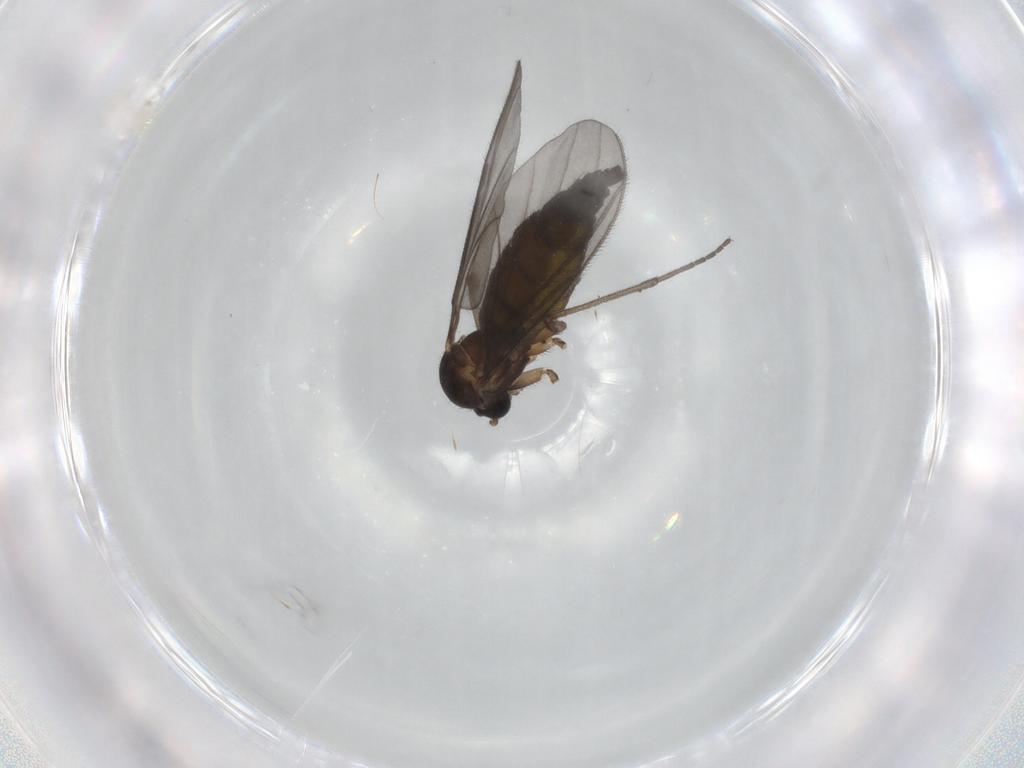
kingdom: Animalia
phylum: Arthropoda
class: Insecta
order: Diptera
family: Sciaridae
